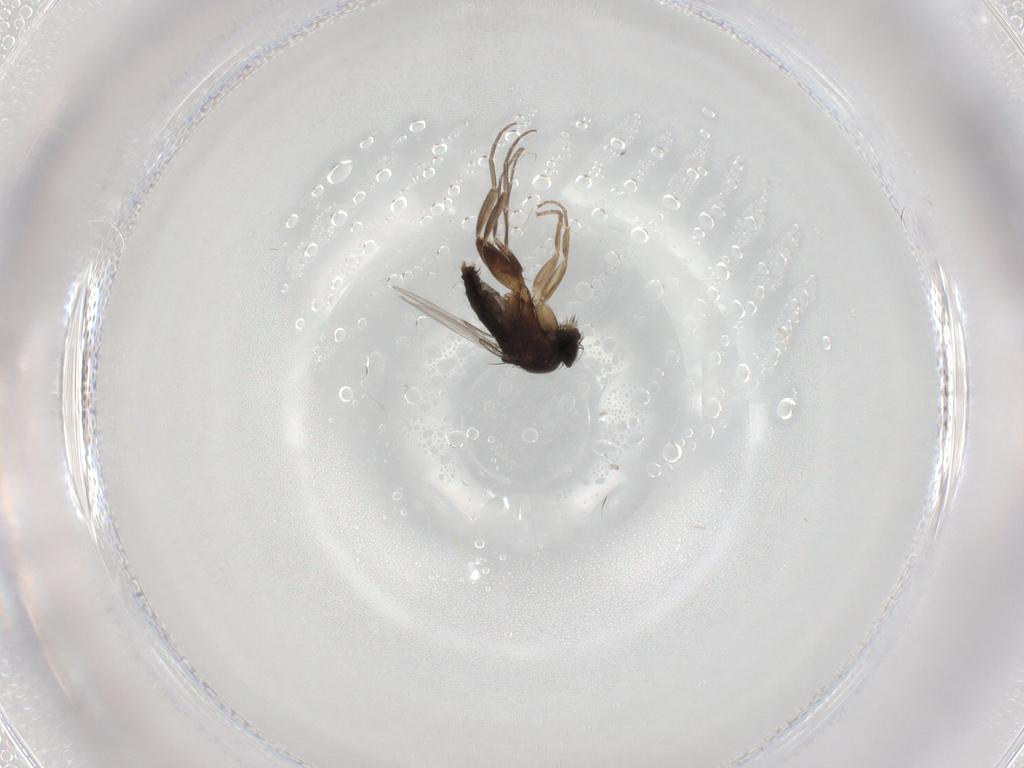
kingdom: Animalia
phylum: Arthropoda
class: Insecta
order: Diptera
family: Phoridae
